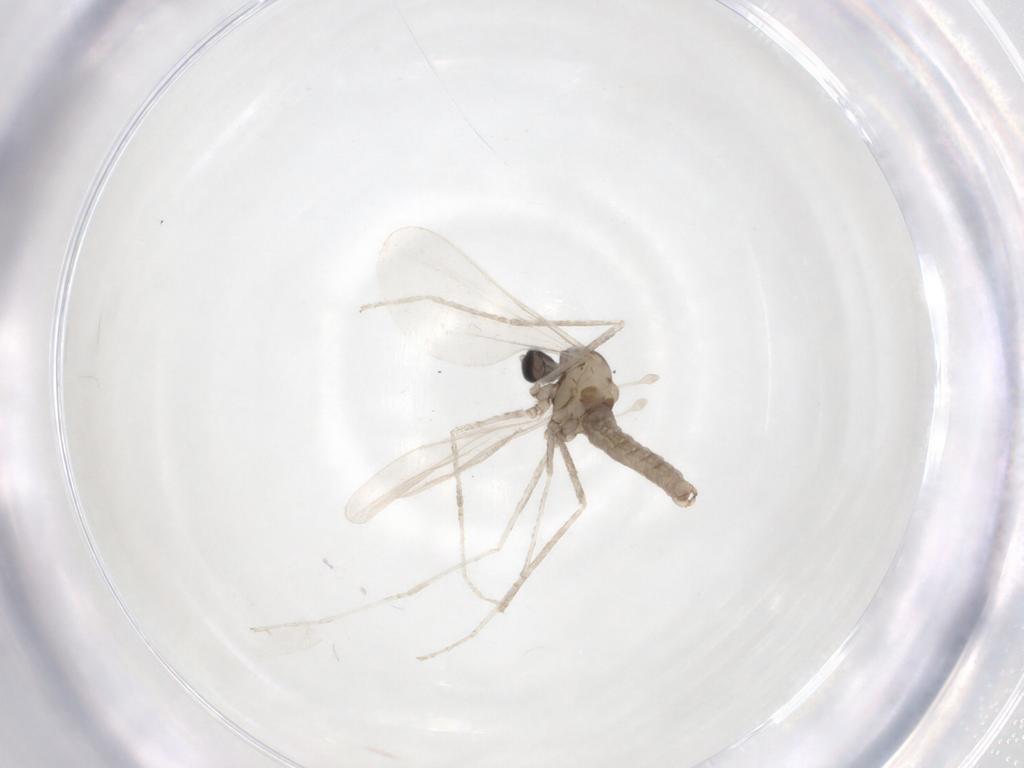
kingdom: Animalia
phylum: Arthropoda
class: Insecta
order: Diptera
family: Cecidomyiidae
